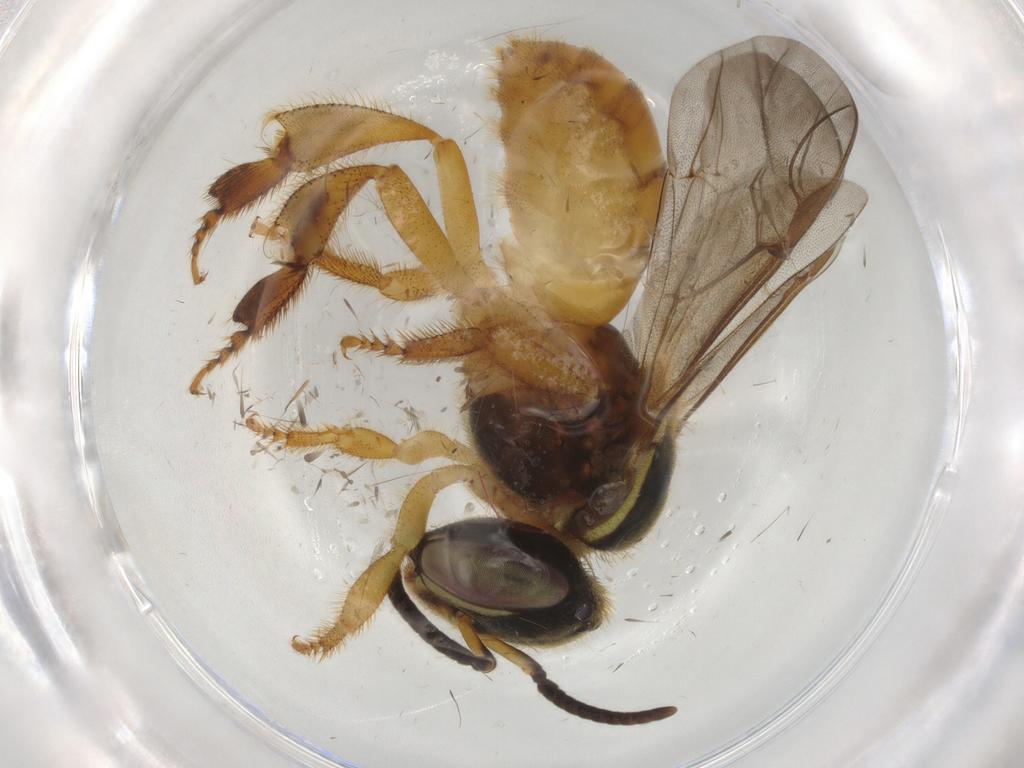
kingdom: Animalia
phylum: Arthropoda
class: Insecta
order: Hymenoptera
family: Apidae
